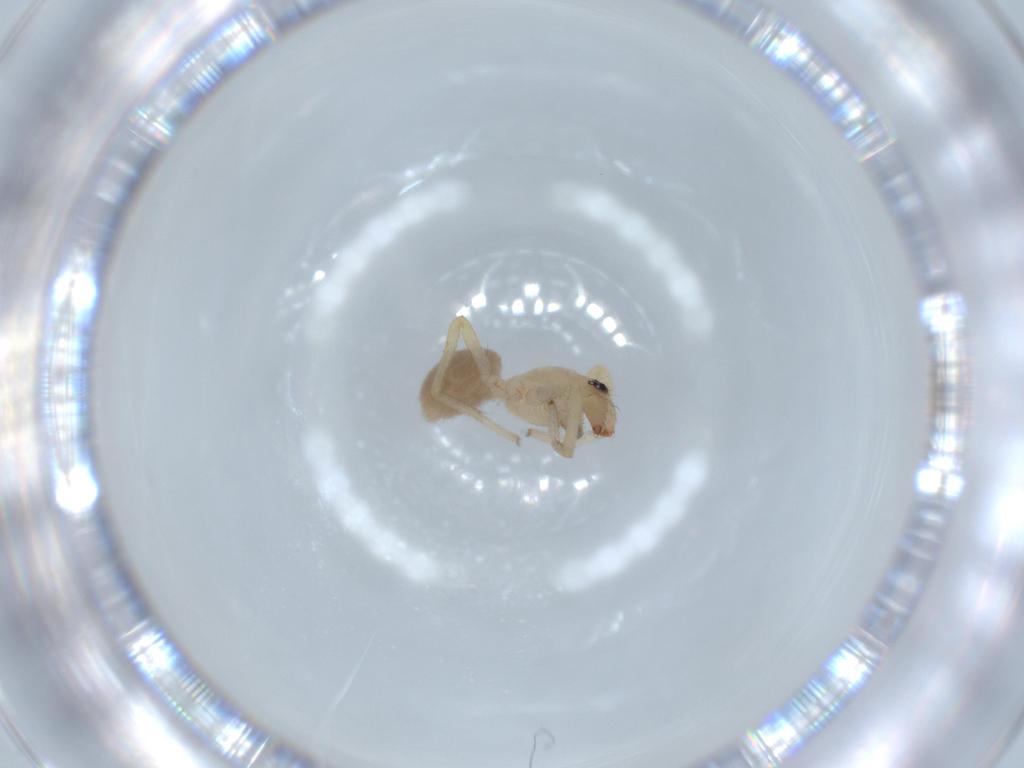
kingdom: Animalia
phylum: Arthropoda
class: Arachnida
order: Araneae
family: Corinnidae
